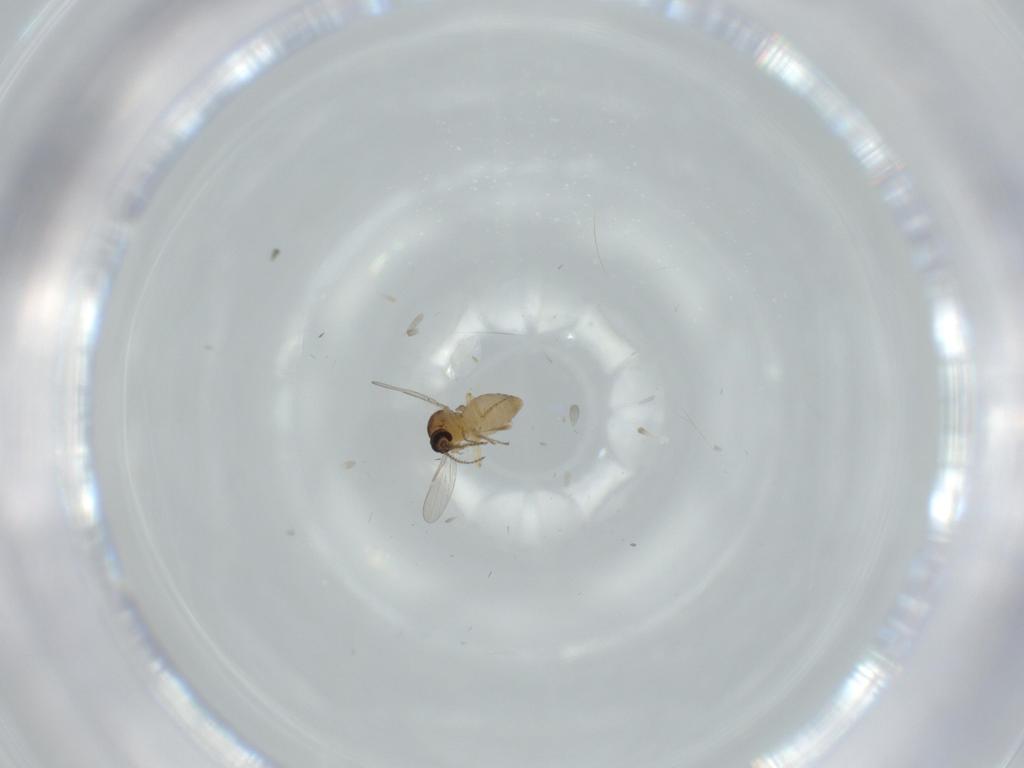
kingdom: Animalia
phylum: Arthropoda
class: Insecta
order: Diptera
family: Ceratopogonidae
